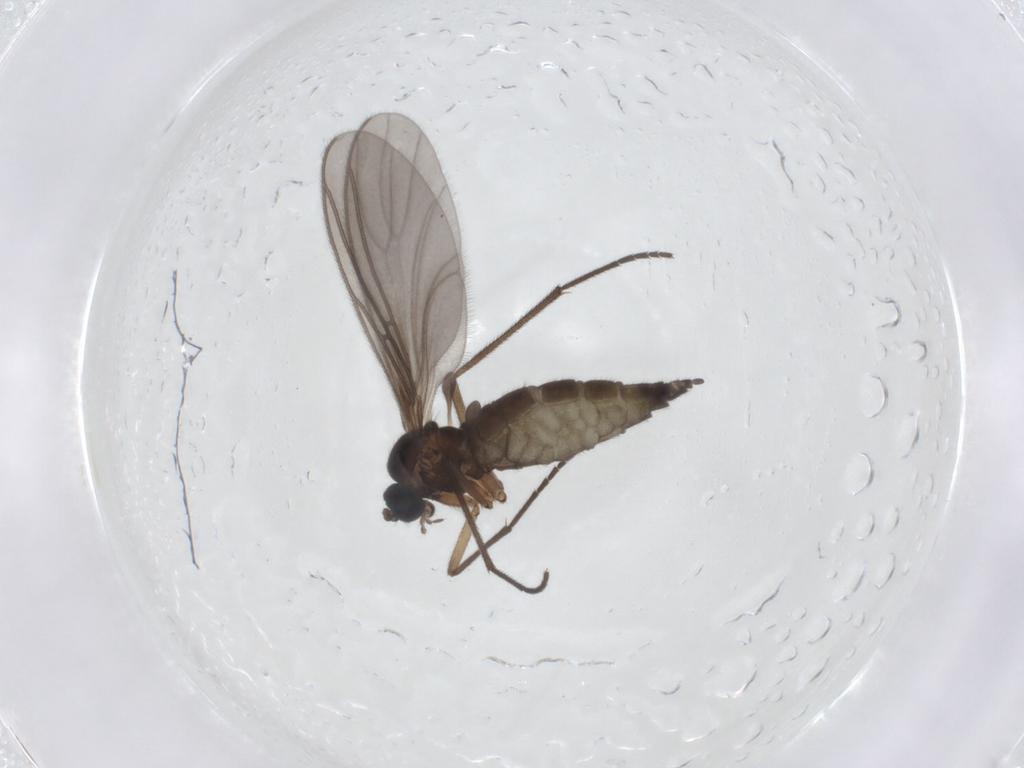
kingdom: Animalia
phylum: Arthropoda
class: Insecta
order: Diptera
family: Sciaridae
